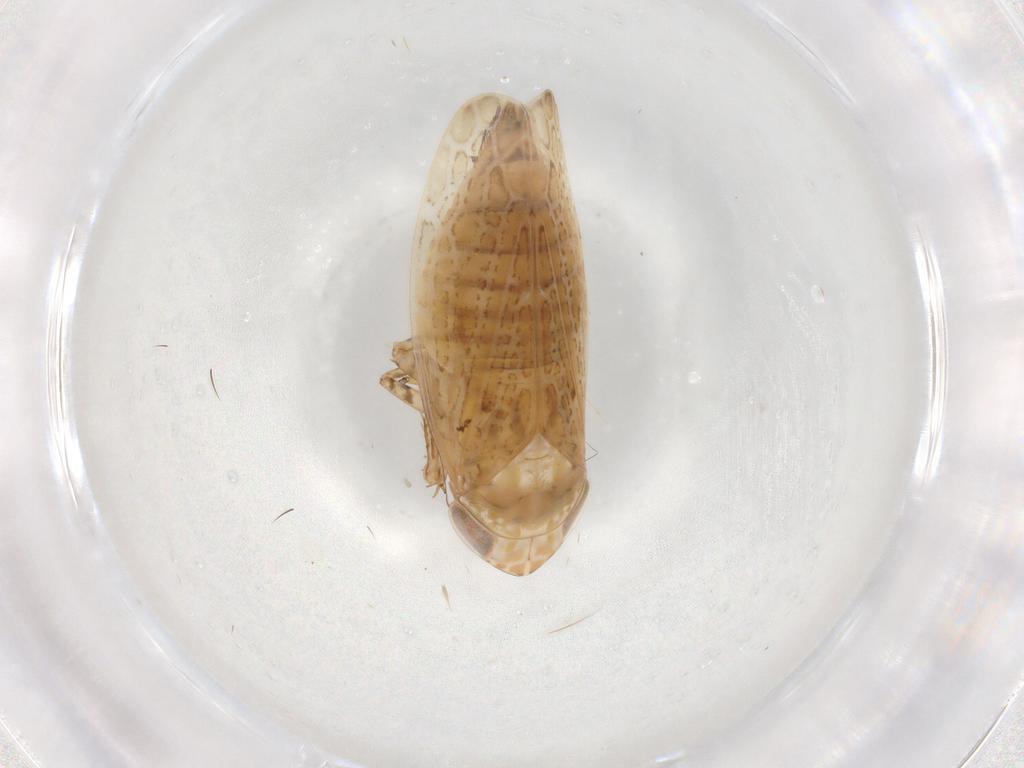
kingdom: Animalia
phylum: Arthropoda
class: Insecta
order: Hemiptera
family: Cicadellidae
